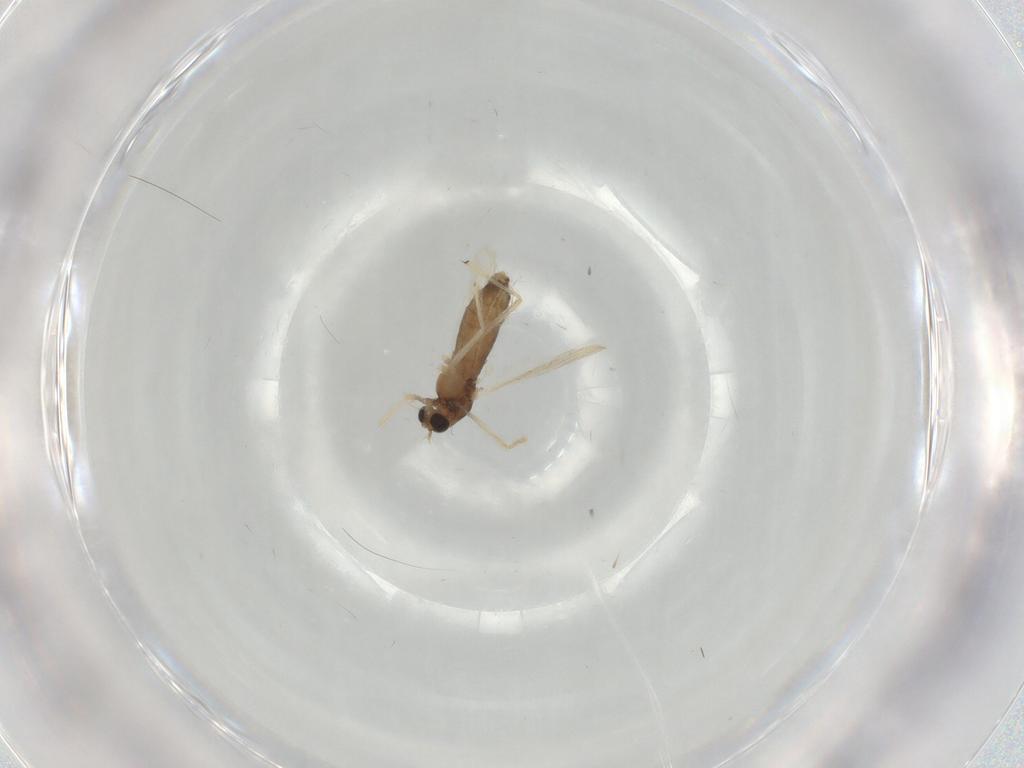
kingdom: Animalia
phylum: Arthropoda
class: Insecta
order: Diptera
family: Chironomidae
